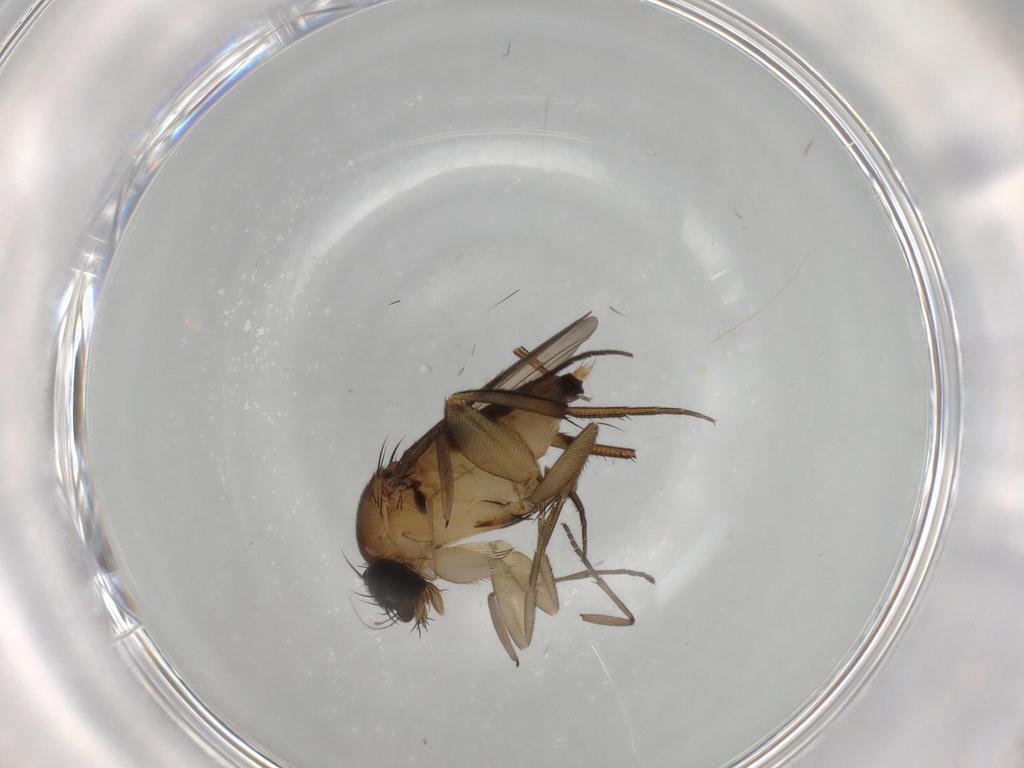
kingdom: Animalia
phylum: Arthropoda
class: Insecta
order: Diptera
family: Phoridae
